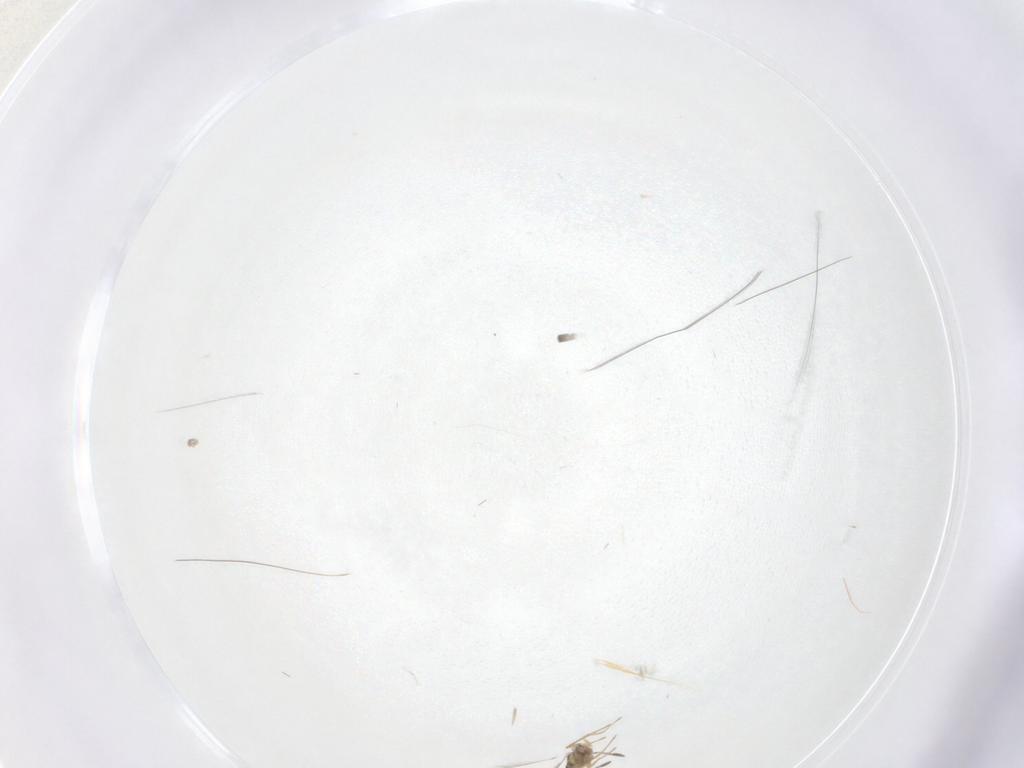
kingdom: Animalia
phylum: Arthropoda
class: Insecta
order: Hymenoptera
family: Mymaridae
